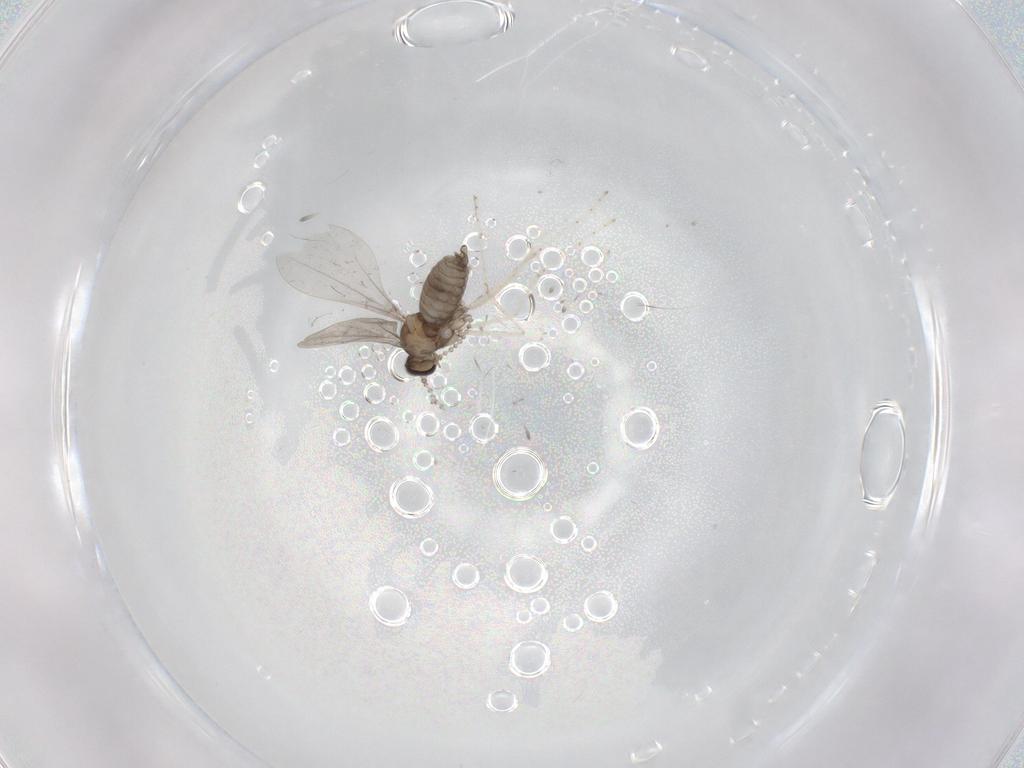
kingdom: Animalia
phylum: Arthropoda
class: Insecta
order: Diptera
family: Cecidomyiidae
